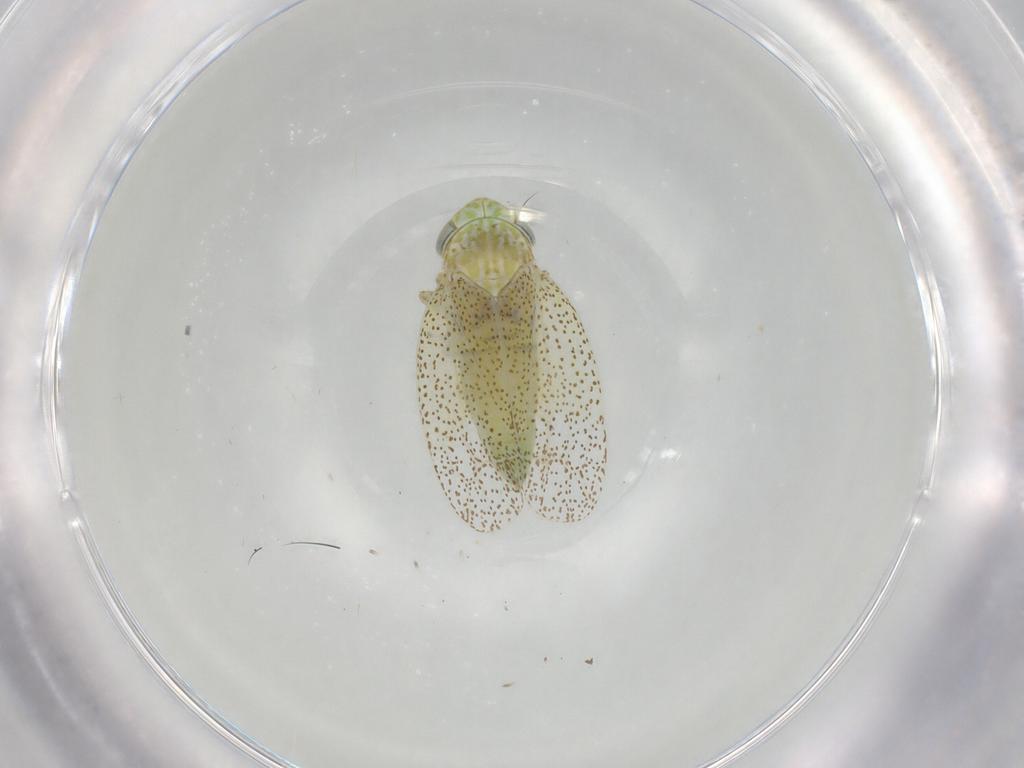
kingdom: Animalia
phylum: Arthropoda
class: Insecta
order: Hemiptera
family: Cicadellidae
